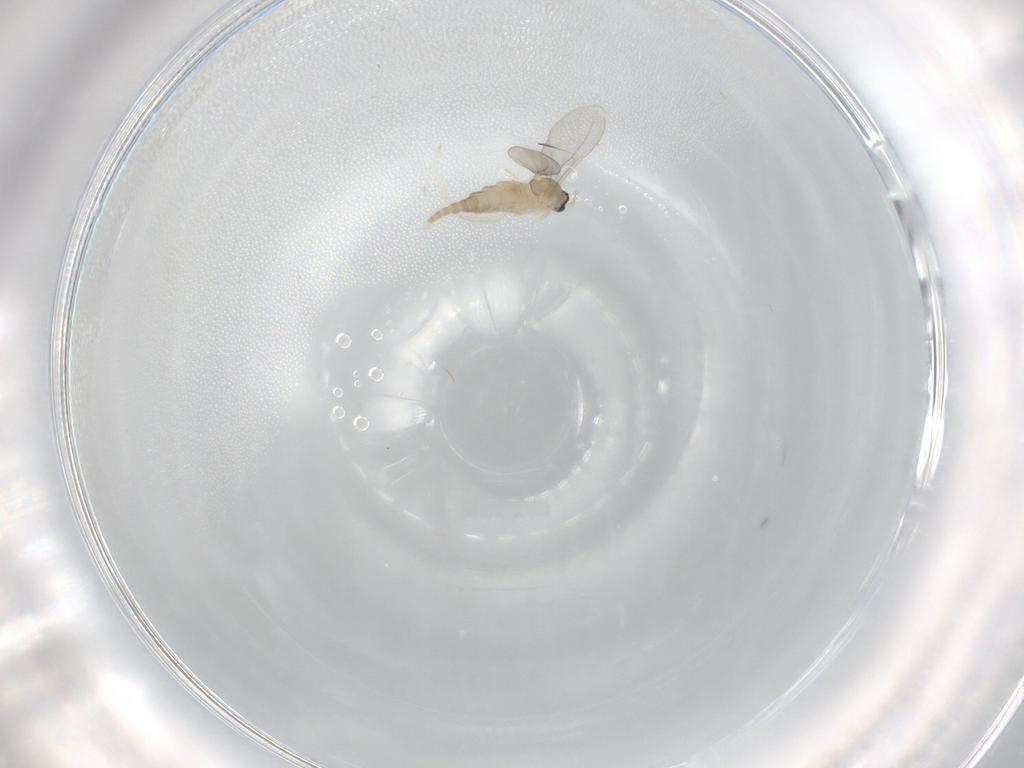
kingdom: Animalia
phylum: Arthropoda
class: Insecta
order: Diptera
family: Cecidomyiidae
